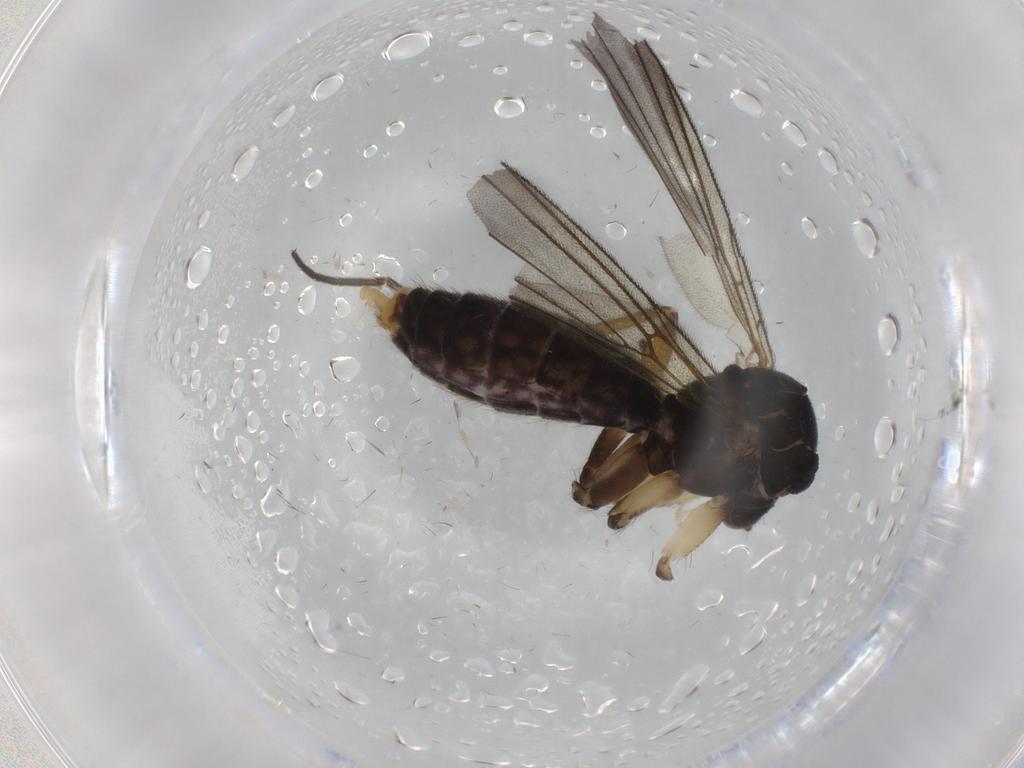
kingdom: Animalia
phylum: Arthropoda
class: Insecta
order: Diptera
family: Mycetophilidae
